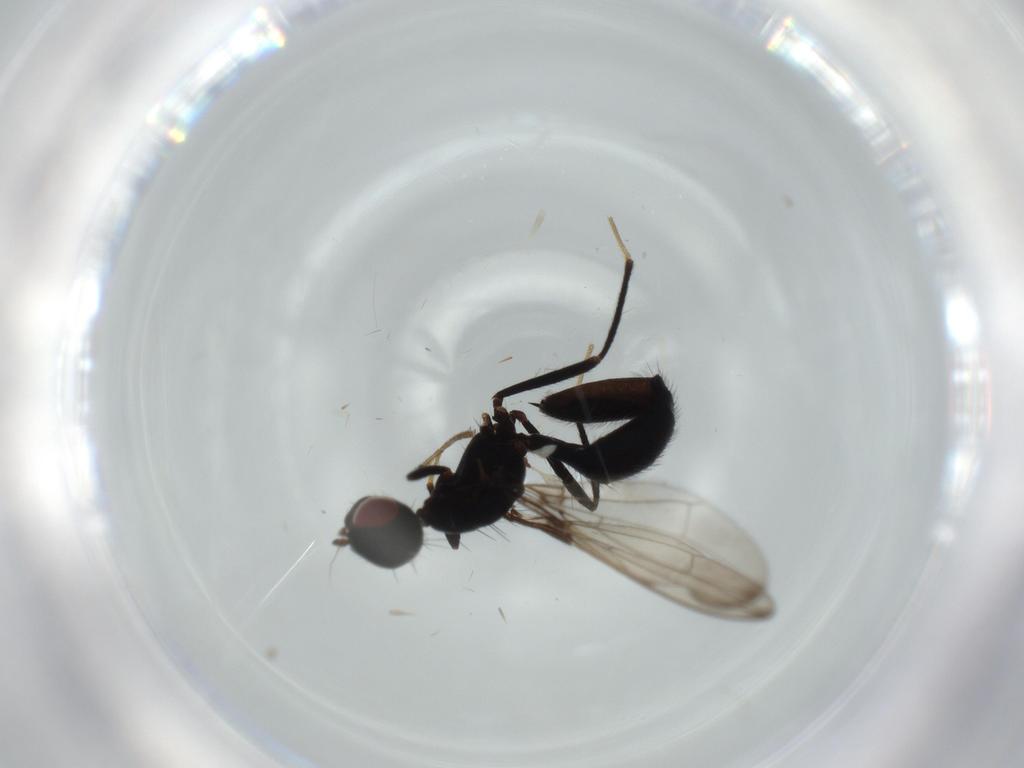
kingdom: Animalia
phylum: Arthropoda
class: Insecta
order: Diptera
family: Richardiidae
